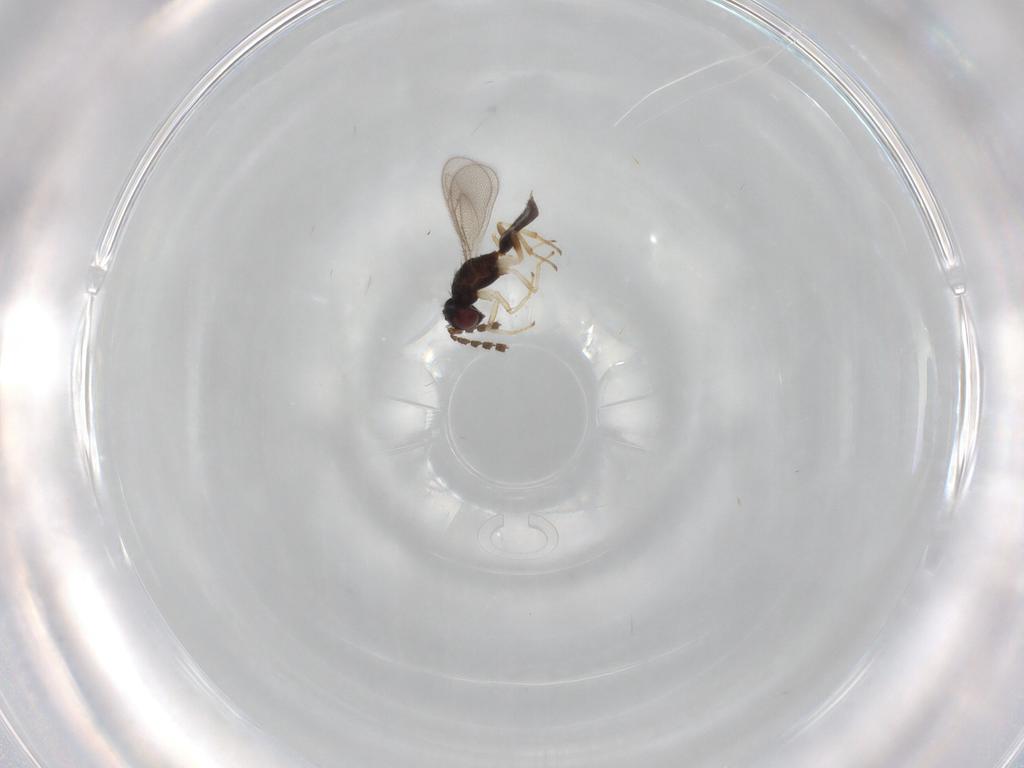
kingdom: Animalia
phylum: Arthropoda
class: Insecta
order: Hymenoptera
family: Formicidae
